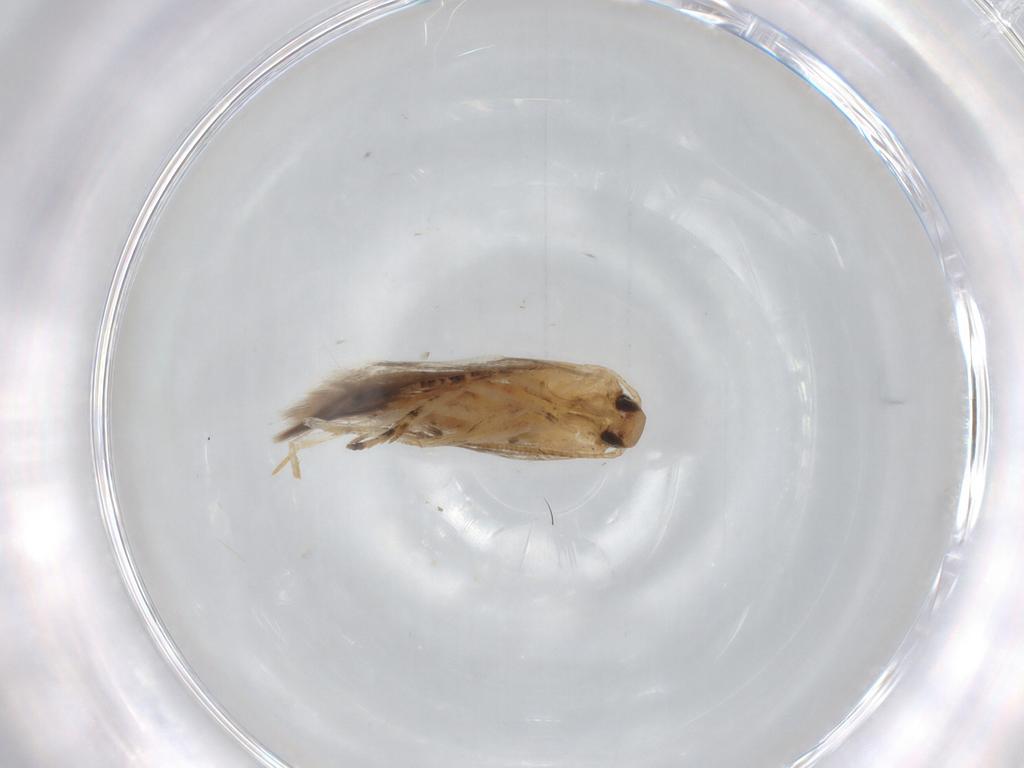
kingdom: Animalia
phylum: Arthropoda
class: Insecta
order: Lepidoptera
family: Gelechiidae
